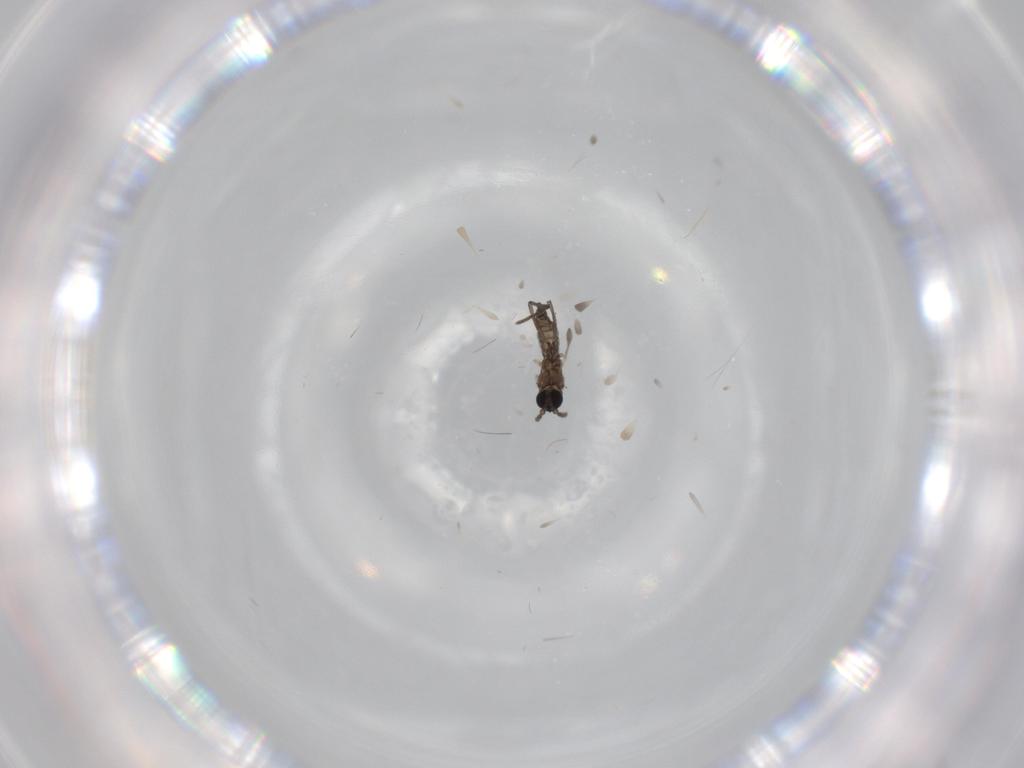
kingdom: Animalia
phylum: Arthropoda
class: Insecta
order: Diptera
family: Sciaridae
